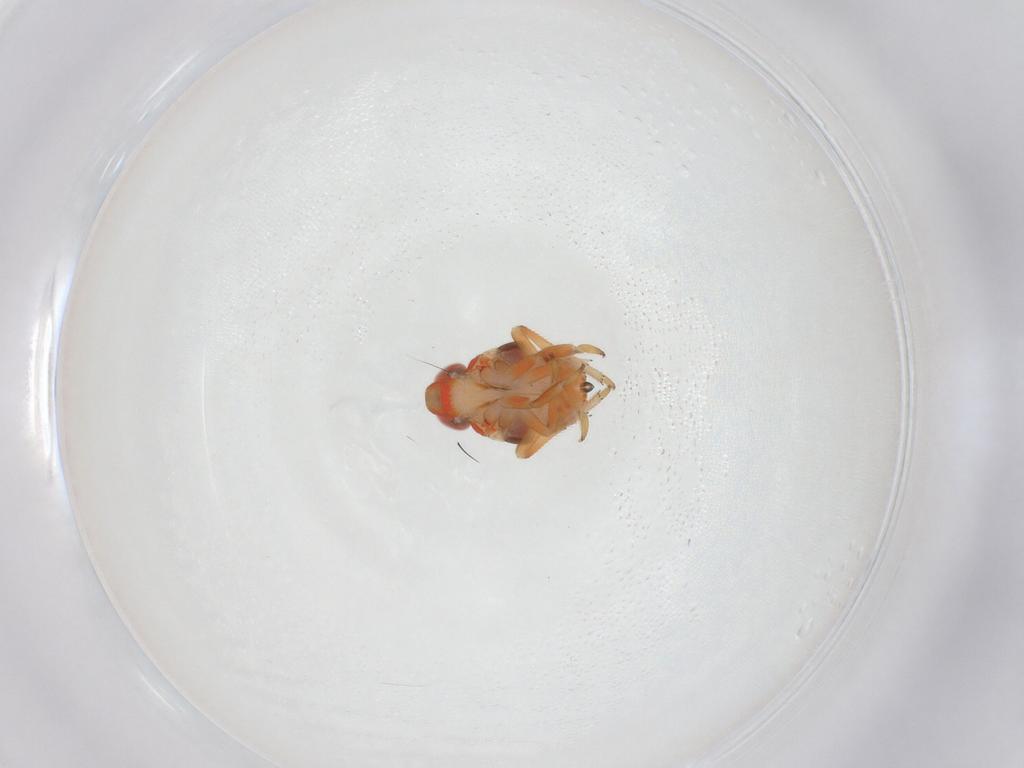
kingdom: Animalia
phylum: Arthropoda
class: Insecta
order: Hemiptera
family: Issidae
